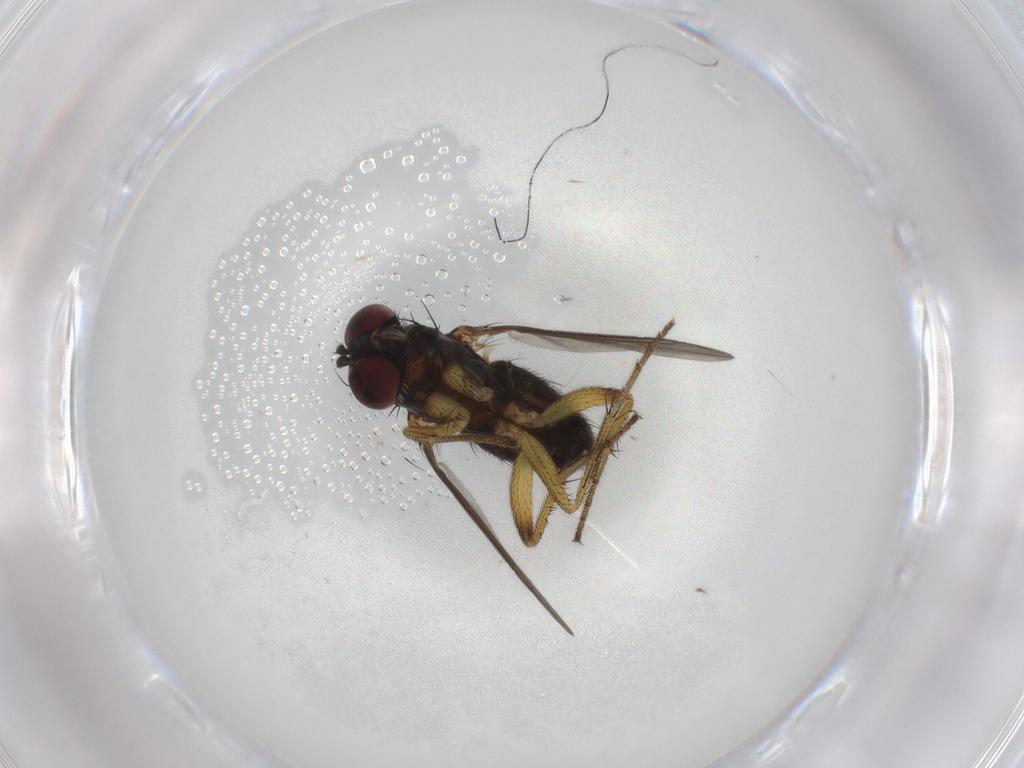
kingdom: Animalia
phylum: Arthropoda
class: Insecta
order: Diptera
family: Dolichopodidae
